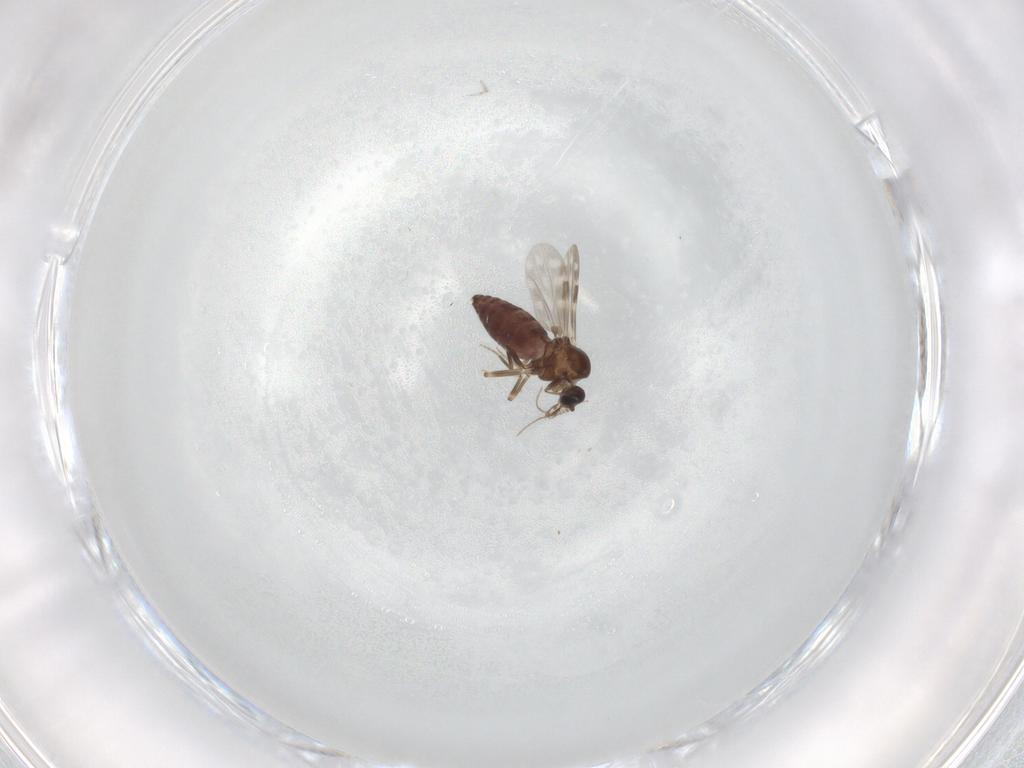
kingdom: Animalia
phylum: Arthropoda
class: Insecta
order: Diptera
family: Ceratopogonidae
